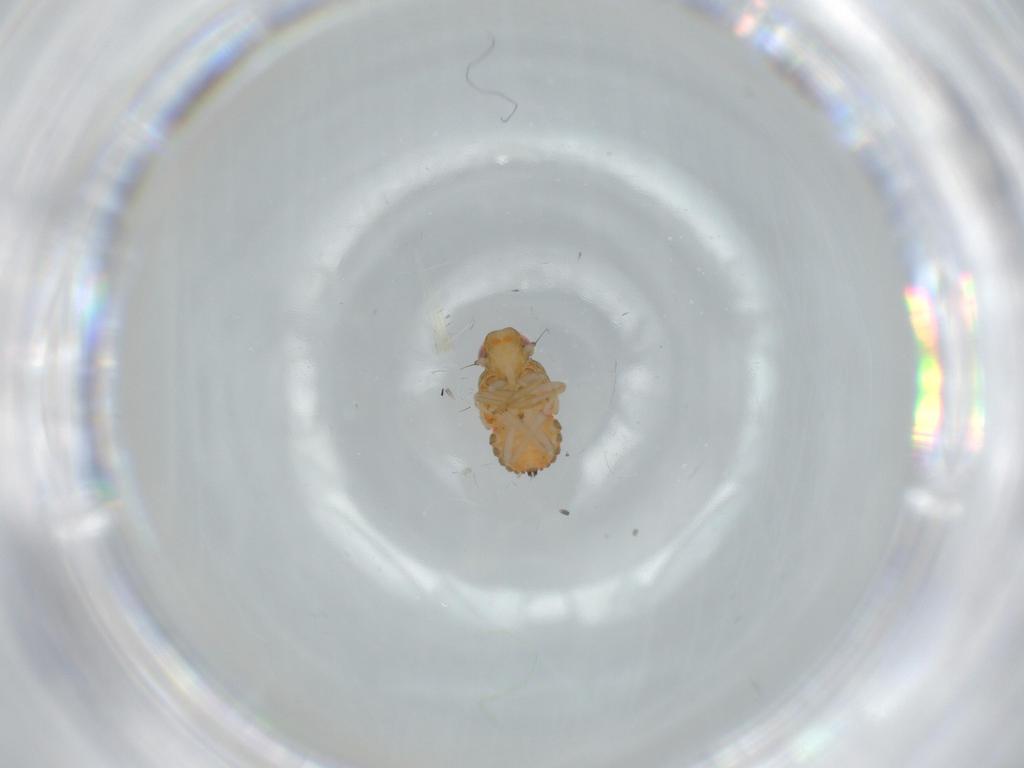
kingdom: Animalia
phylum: Arthropoda
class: Insecta
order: Hemiptera
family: Issidae
